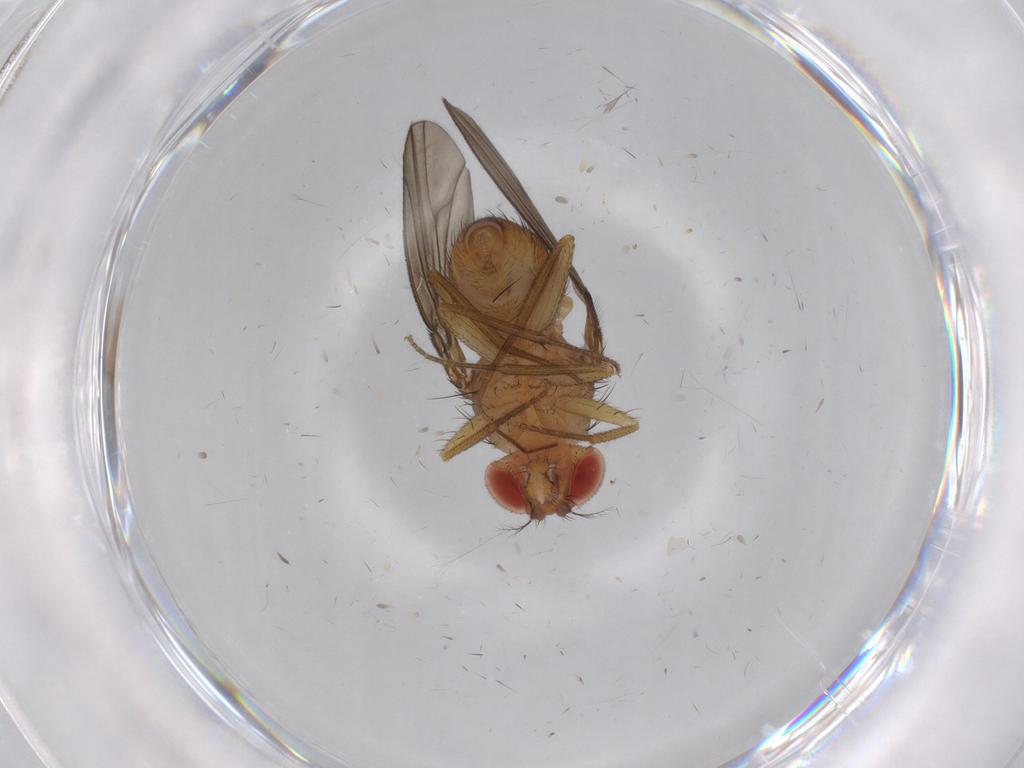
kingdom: Animalia
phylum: Arthropoda
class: Insecta
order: Diptera
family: Drosophilidae
